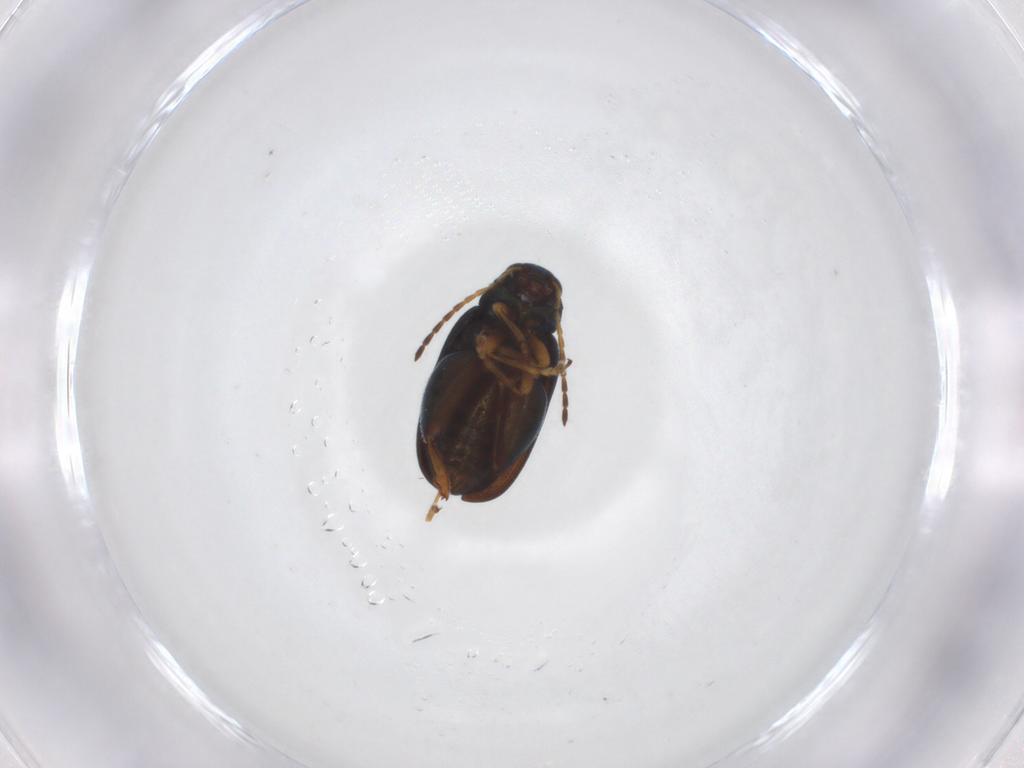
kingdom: Animalia
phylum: Arthropoda
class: Insecta
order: Coleoptera
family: Chrysomelidae
